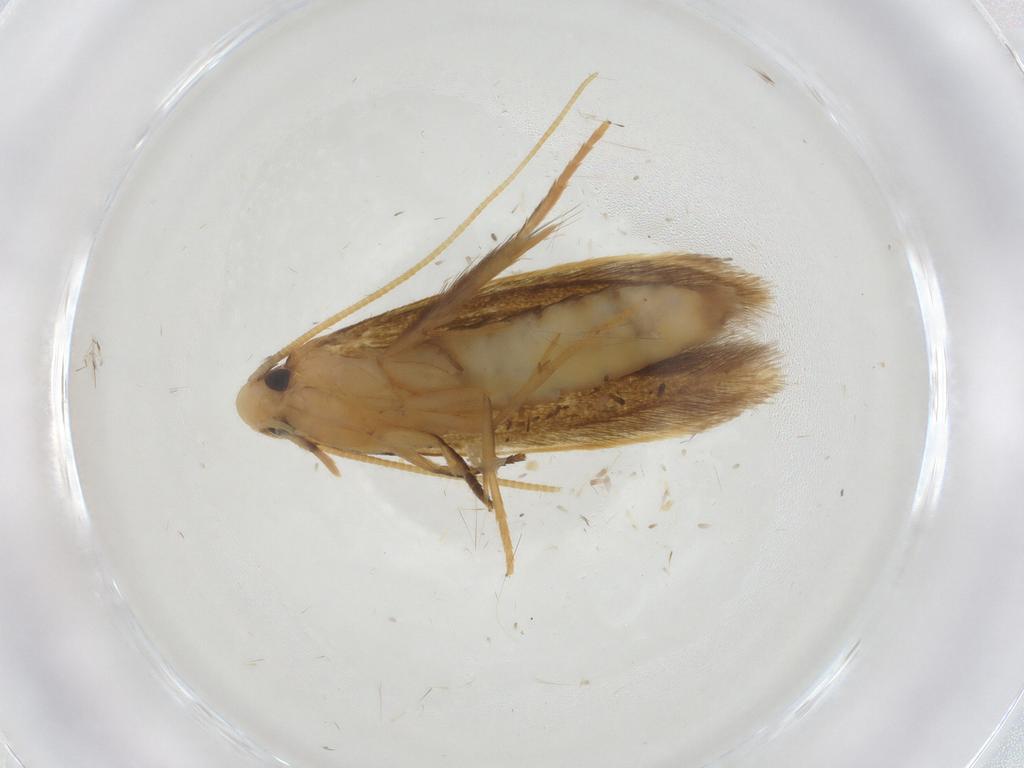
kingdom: Animalia
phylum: Arthropoda
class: Insecta
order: Lepidoptera
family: Tineidae
